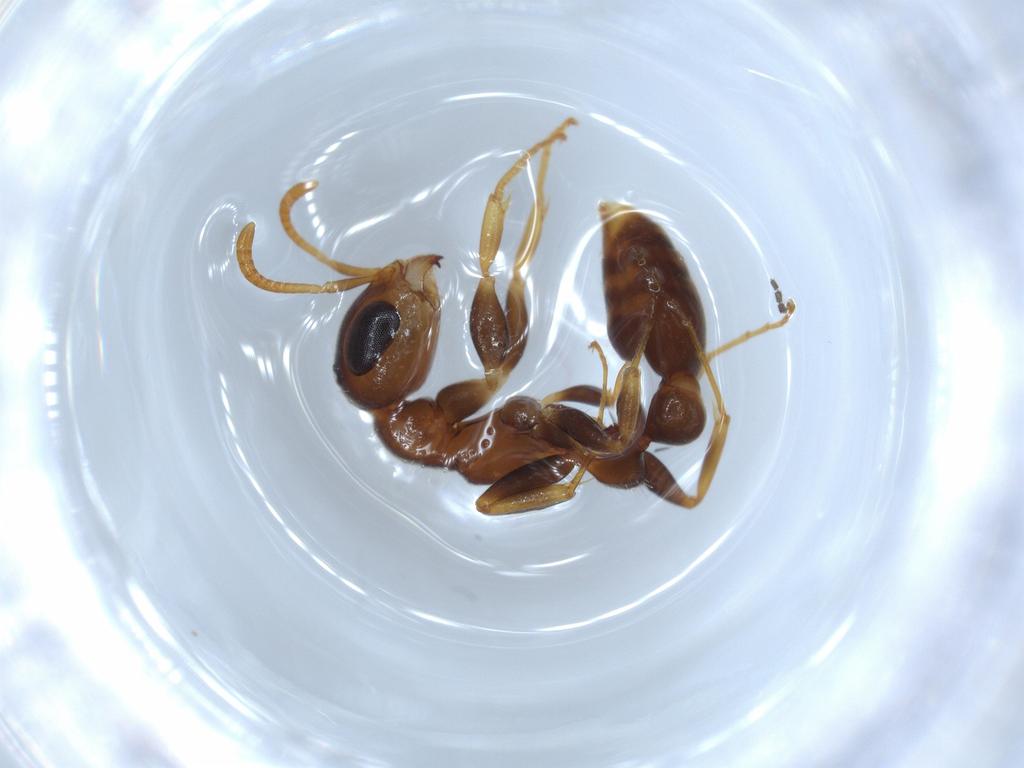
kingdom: Animalia
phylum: Arthropoda
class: Insecta
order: Hymenoptera
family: Formicidae
